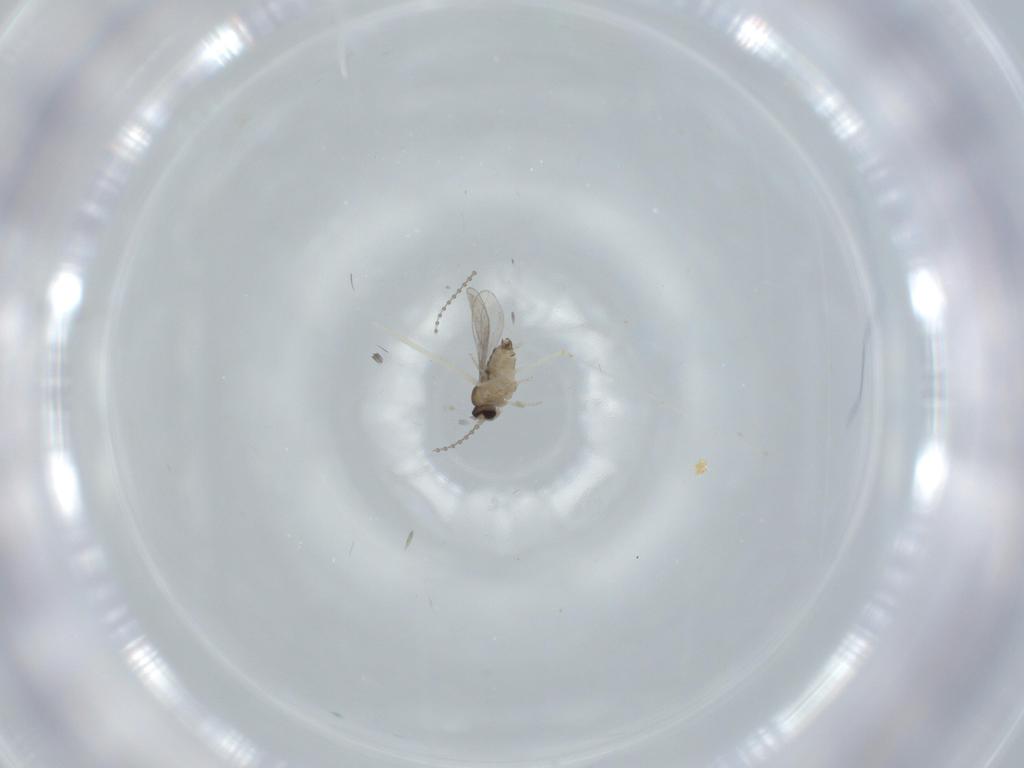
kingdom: Animalia
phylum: Arthropoda
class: Insecta
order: Diptera
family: Cecidomyiidae
